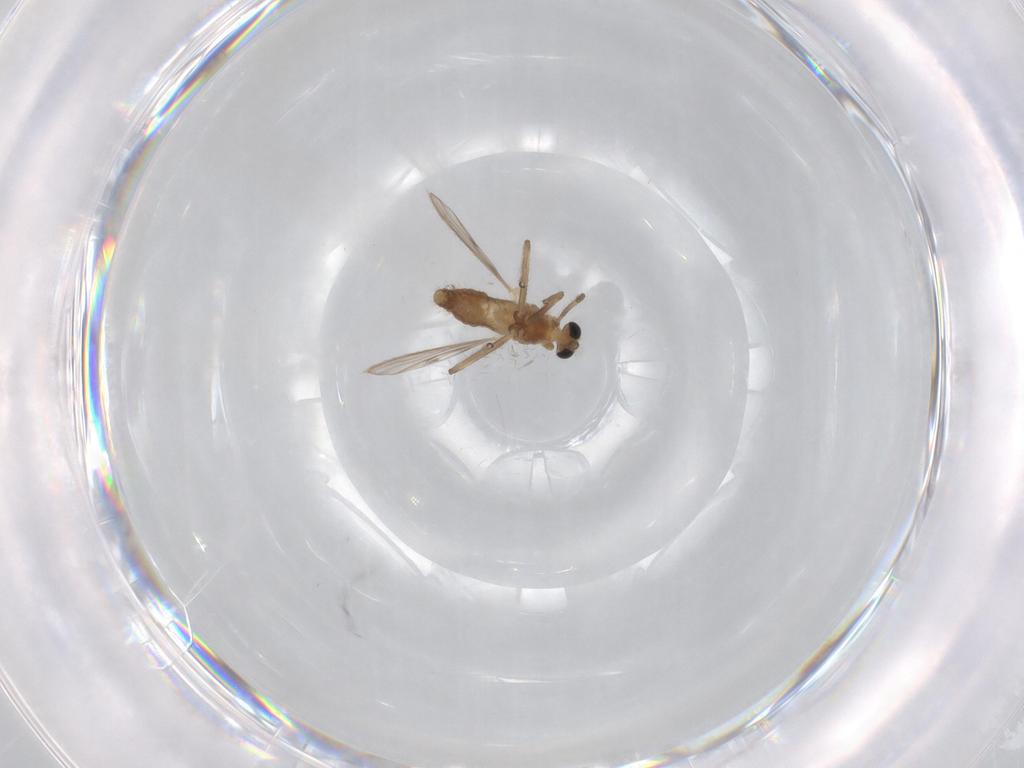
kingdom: Animalia
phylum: Arthropoda
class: Insecta
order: Diptera
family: Chironomidae
